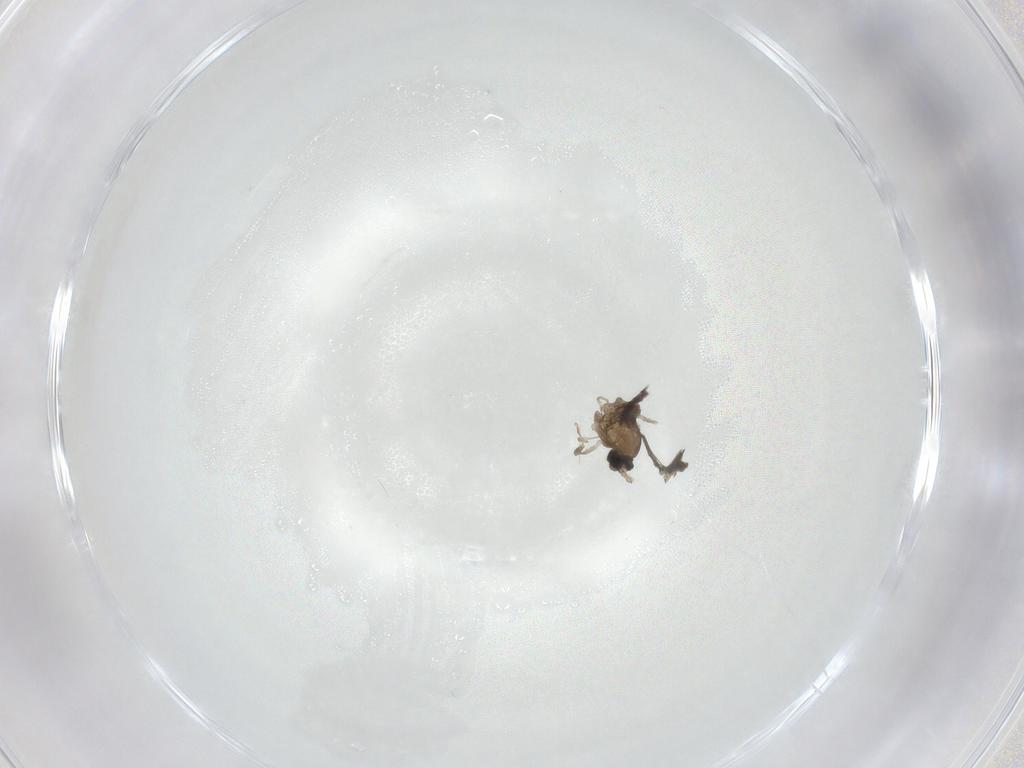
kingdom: Animalia
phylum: Arthropoda
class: Insecta
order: Diptera
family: Cecidomyiidae
